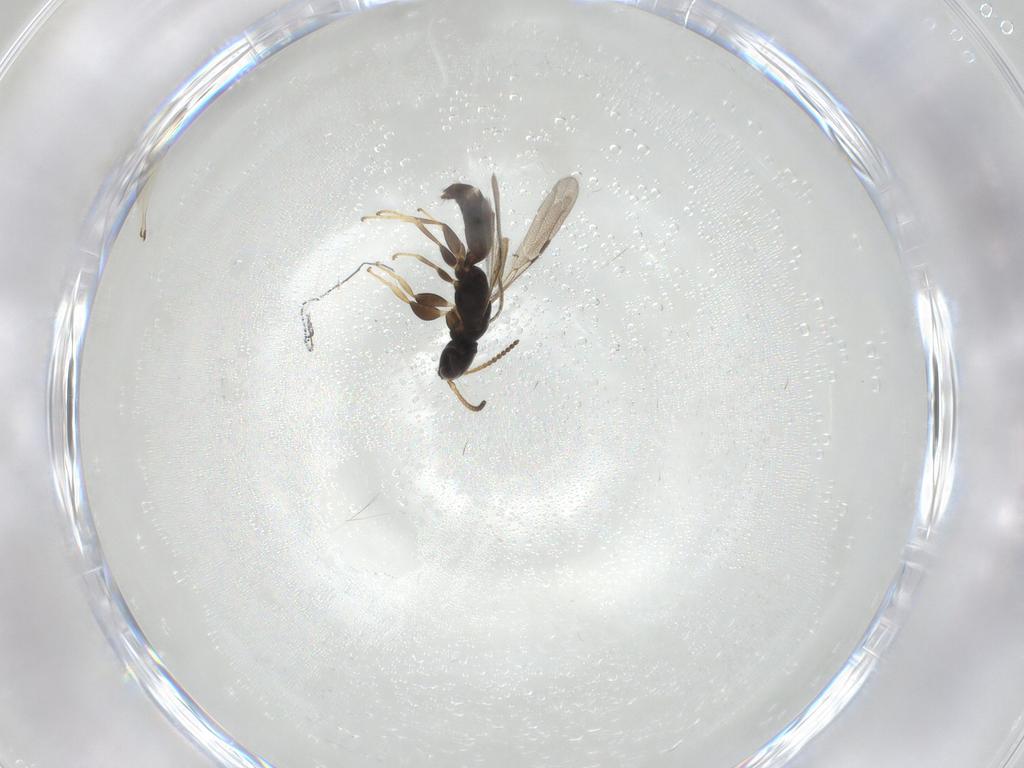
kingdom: Animalia
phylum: Arthropoda
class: Insecta
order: Hymenoptera
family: Bethylidae
